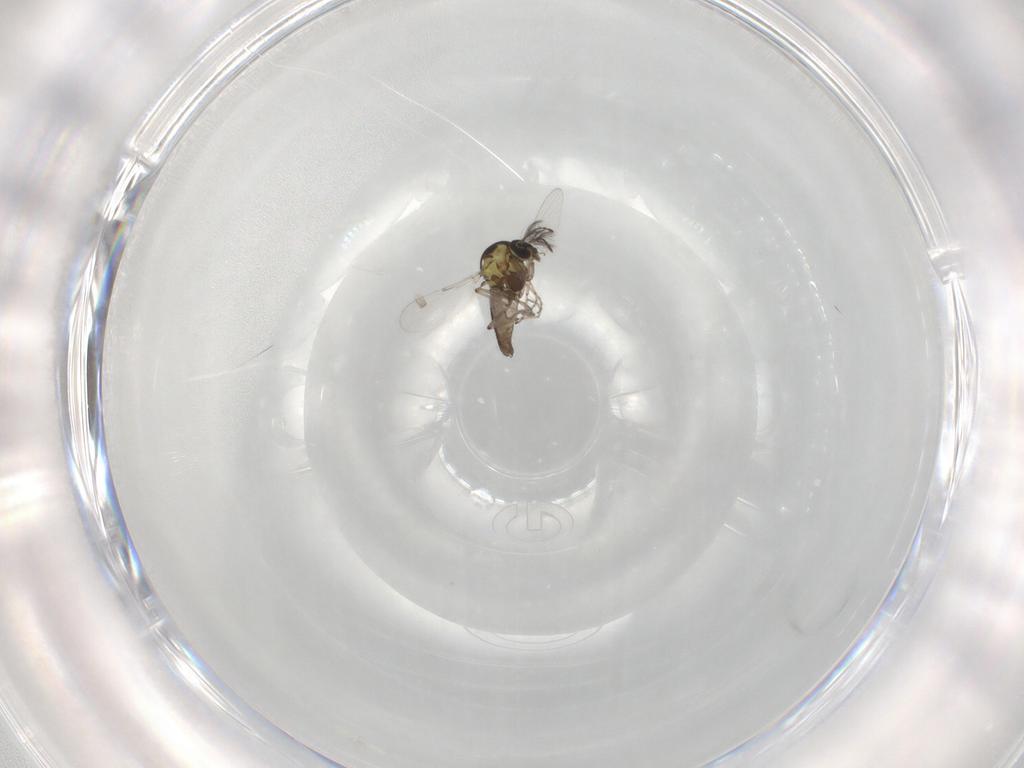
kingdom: Animalia
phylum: Arthropoda
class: Insecta
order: Diptera
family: Ceratopogonidae
